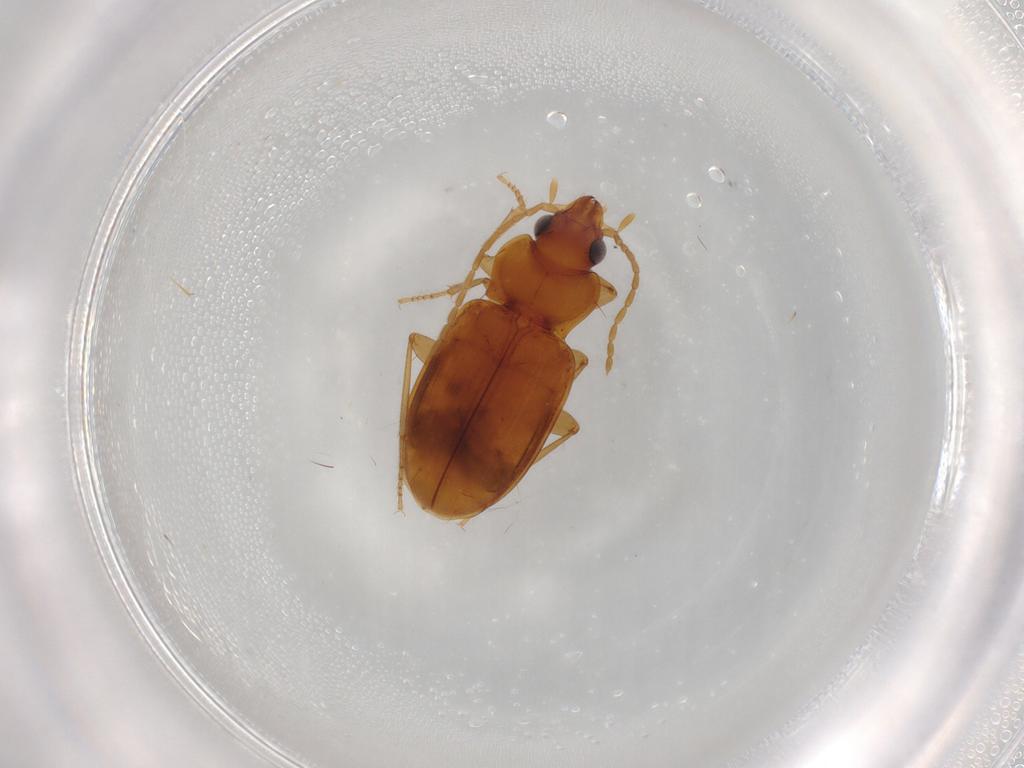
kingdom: Animalia
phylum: Arthropoda
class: Insecta
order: Coleoptera
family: Carabidae
